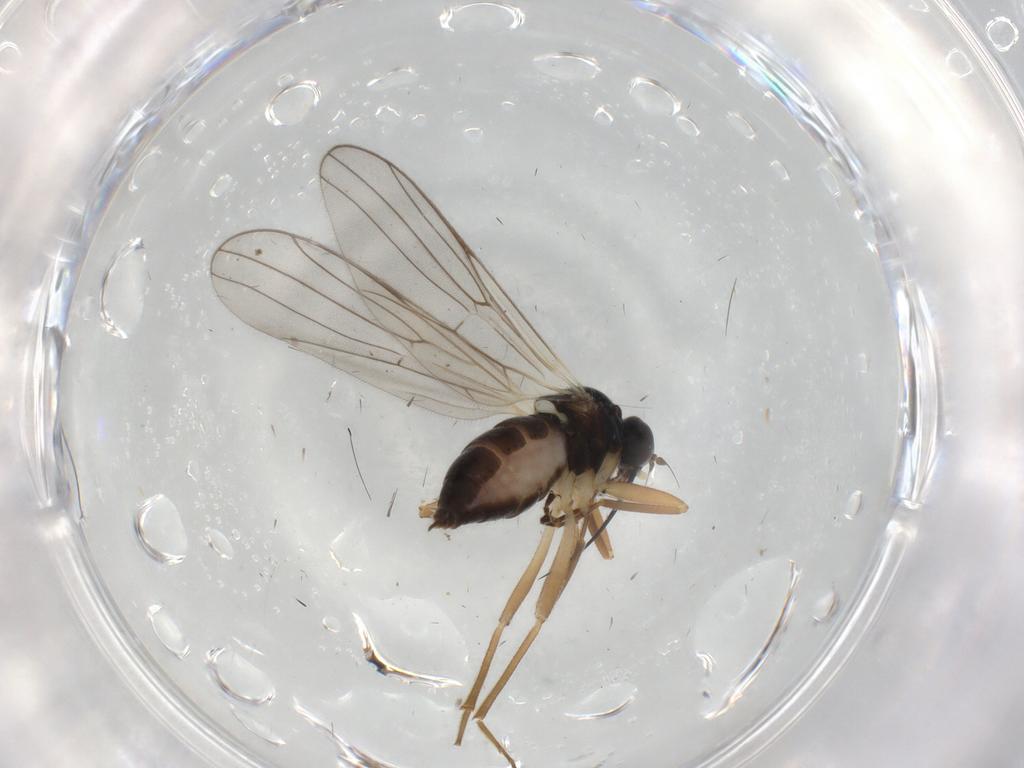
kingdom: Animalia
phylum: Arthropoda
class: Insecta
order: Diptera
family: Hybotidae
